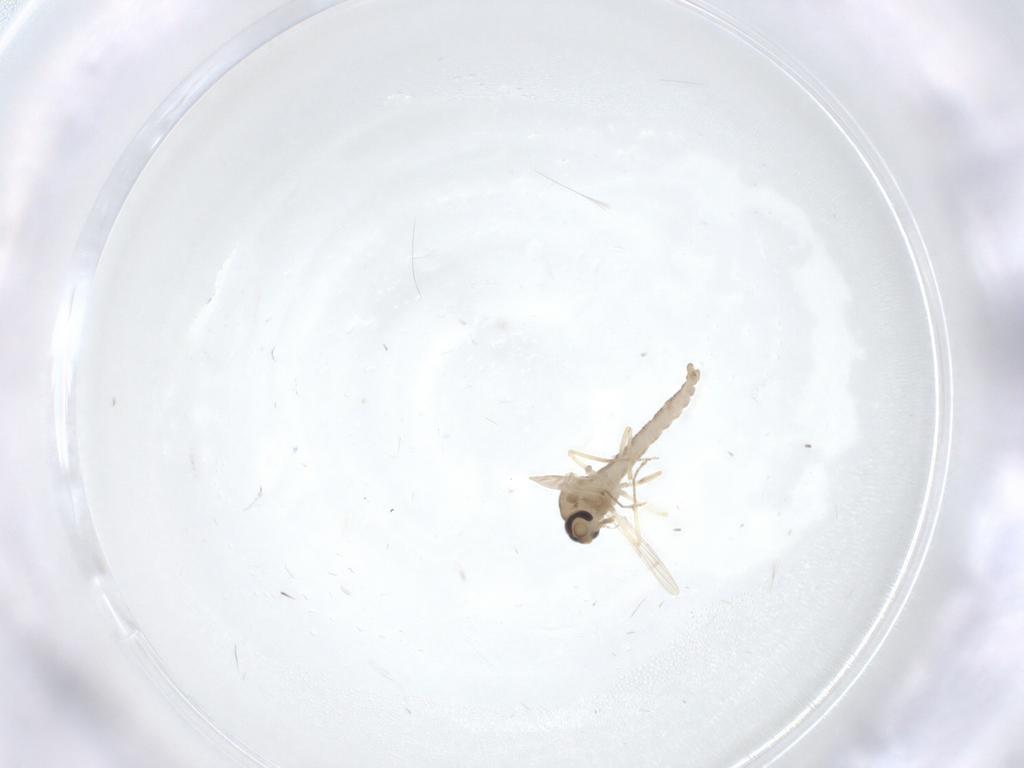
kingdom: Animalia
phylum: Arthropoda
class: Insecta
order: Diptera
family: Ceratopogonidae
